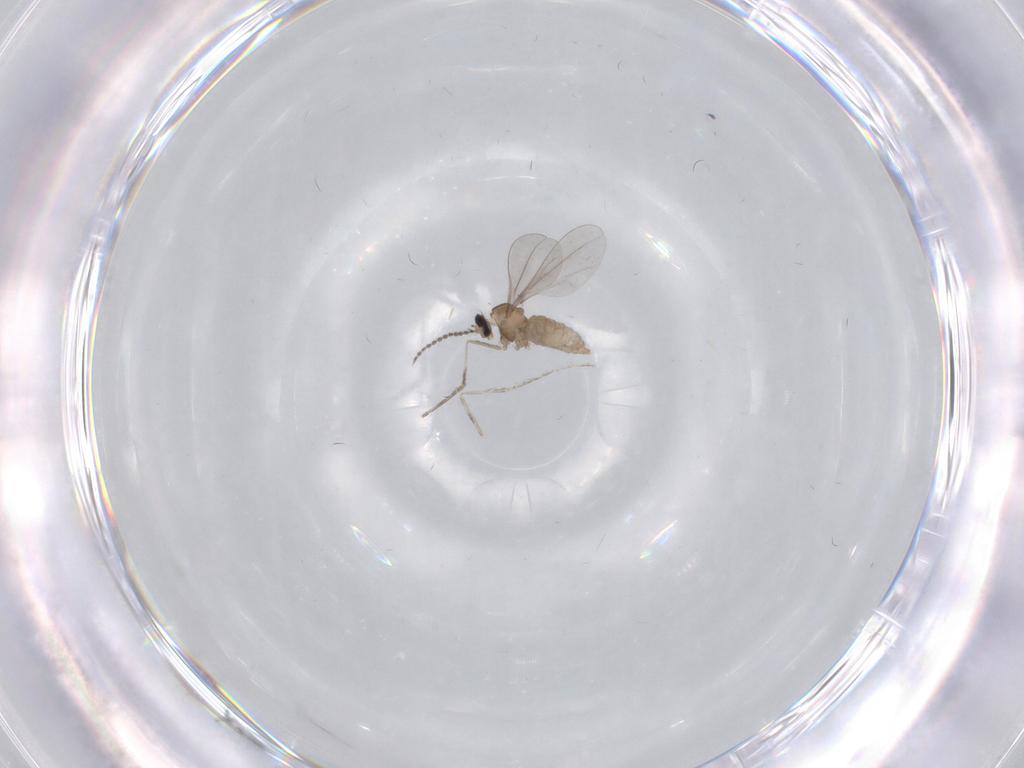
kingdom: Animalia
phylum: Arthropoda
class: Insecta
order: Diptera
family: Cecidomyiidae
